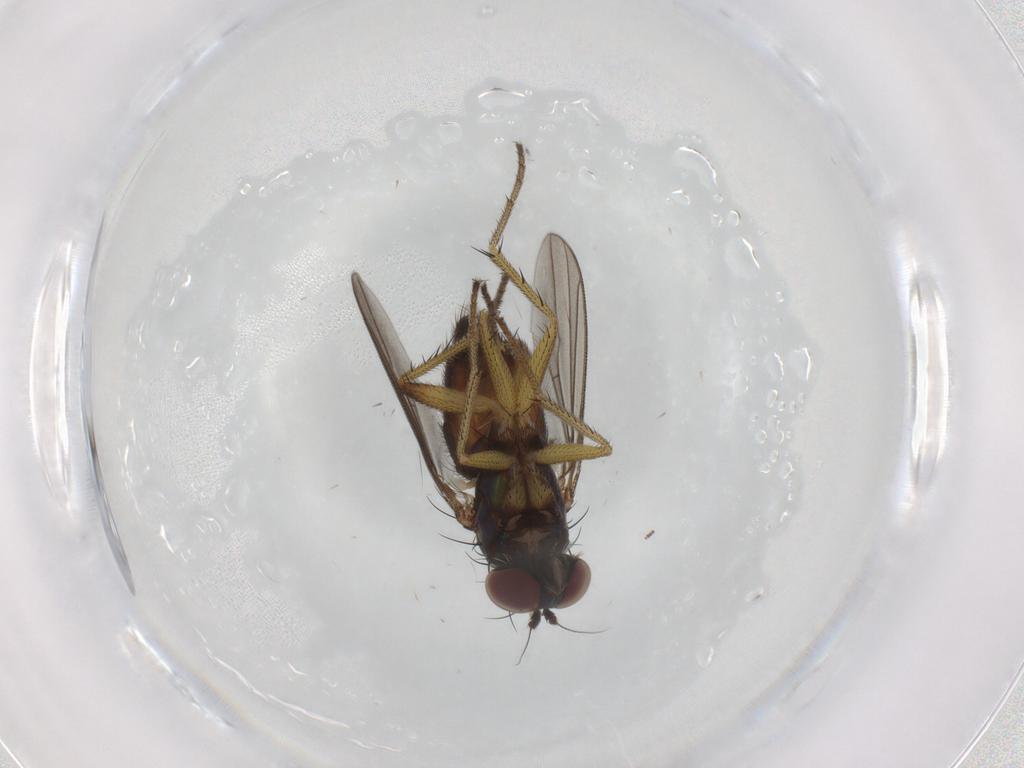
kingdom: Animalia
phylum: Arthropoda
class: Insecta
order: Diptera
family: Dolichopodidae
